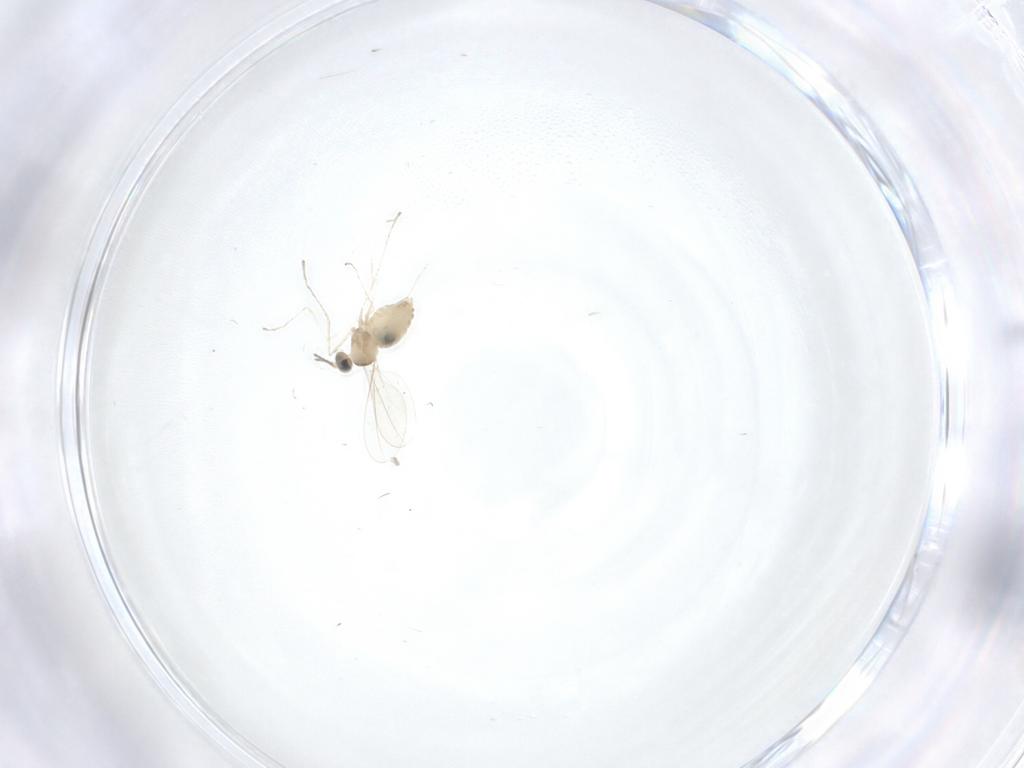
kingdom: Animalia
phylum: Arthropoda
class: Insecta
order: Diptera
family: Cecidomyiidae
